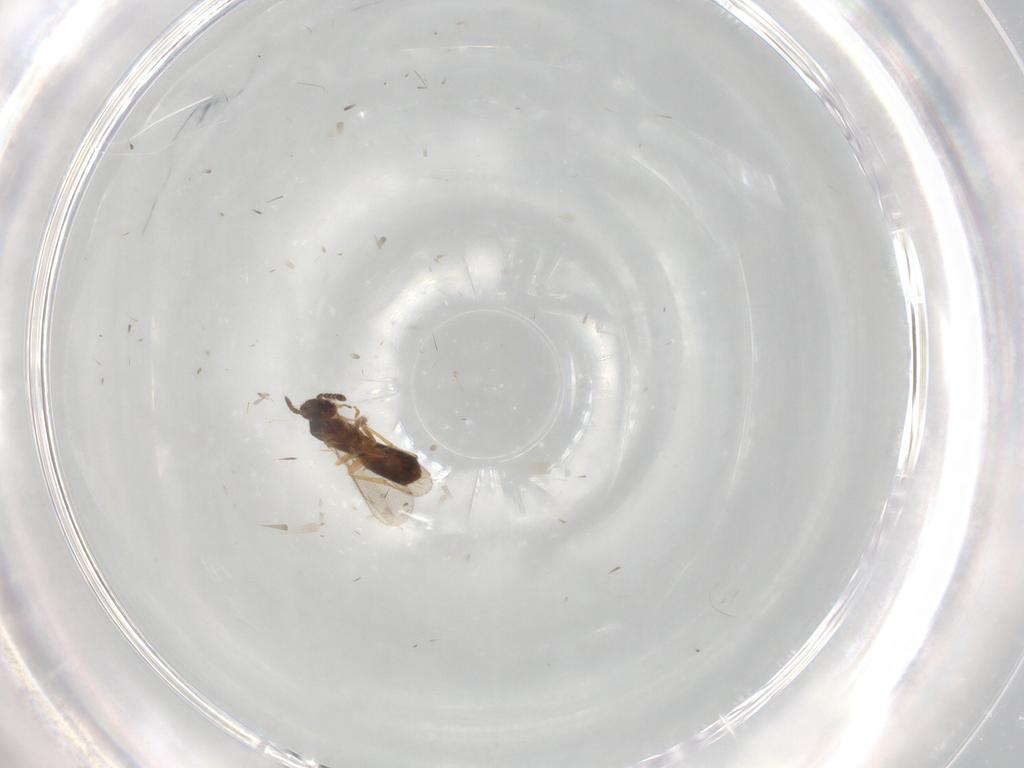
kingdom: Animalia
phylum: Arthropoda
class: Insecta
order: Hymenoptera
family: Eulophidae
